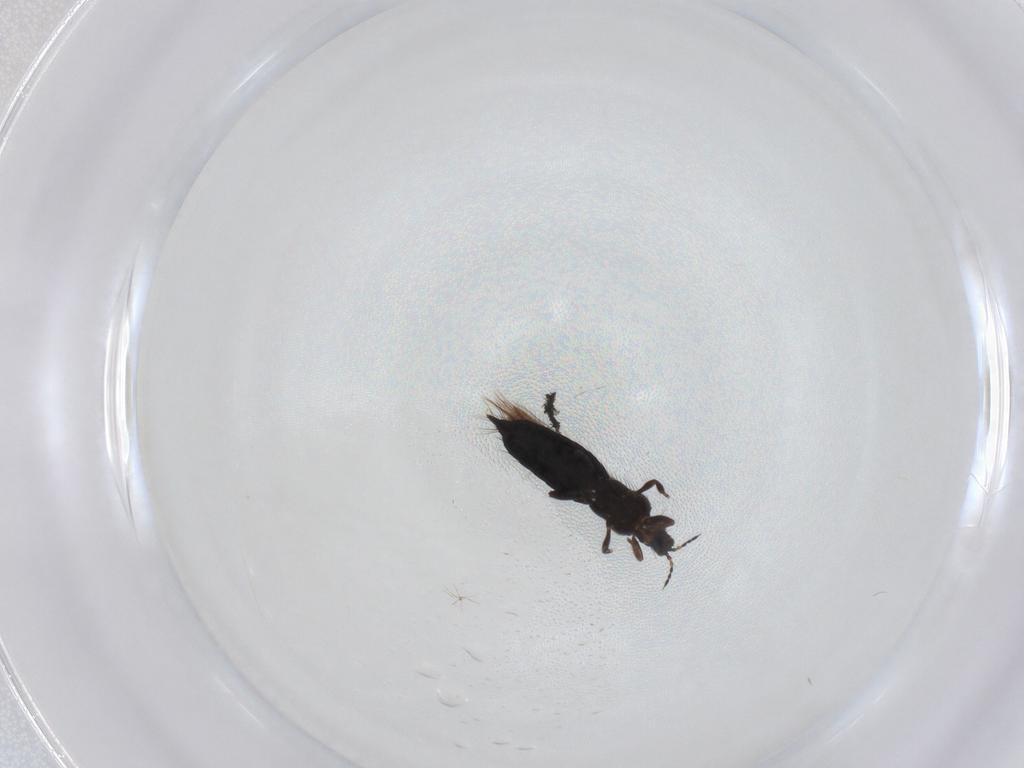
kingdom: Animalia
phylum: Arthropoda
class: Insecta
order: Thysanoptera
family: Thripidae
